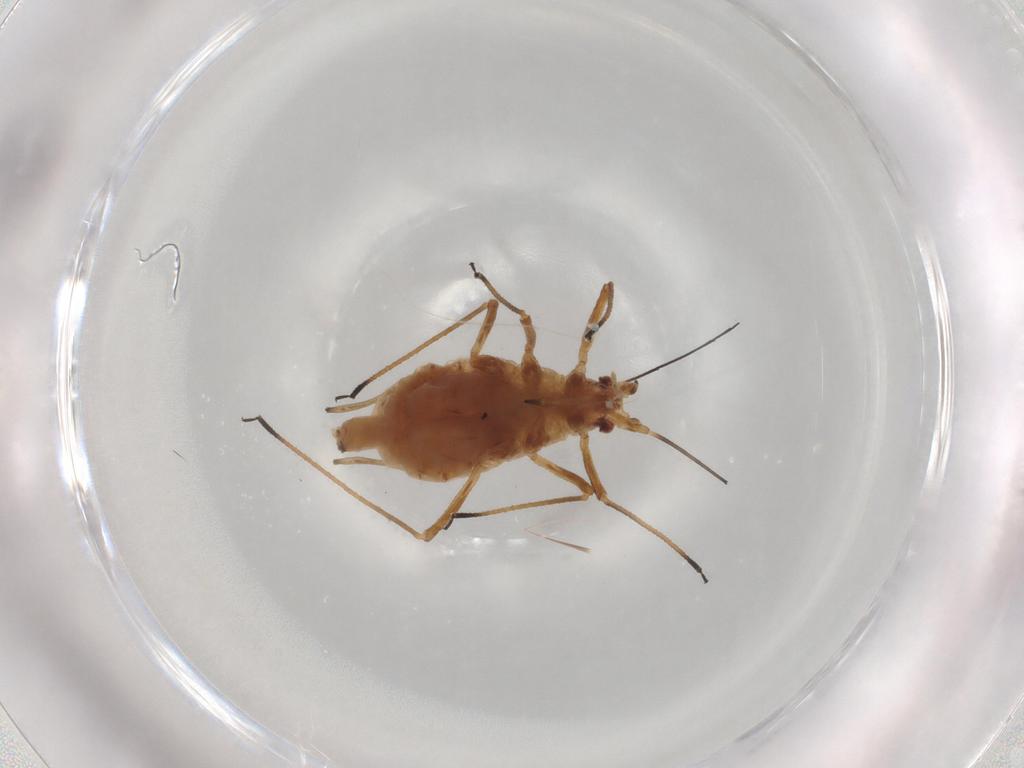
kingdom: Animalia
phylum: Arthropoda
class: Insecta
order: Hemiptera
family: Aphididae
